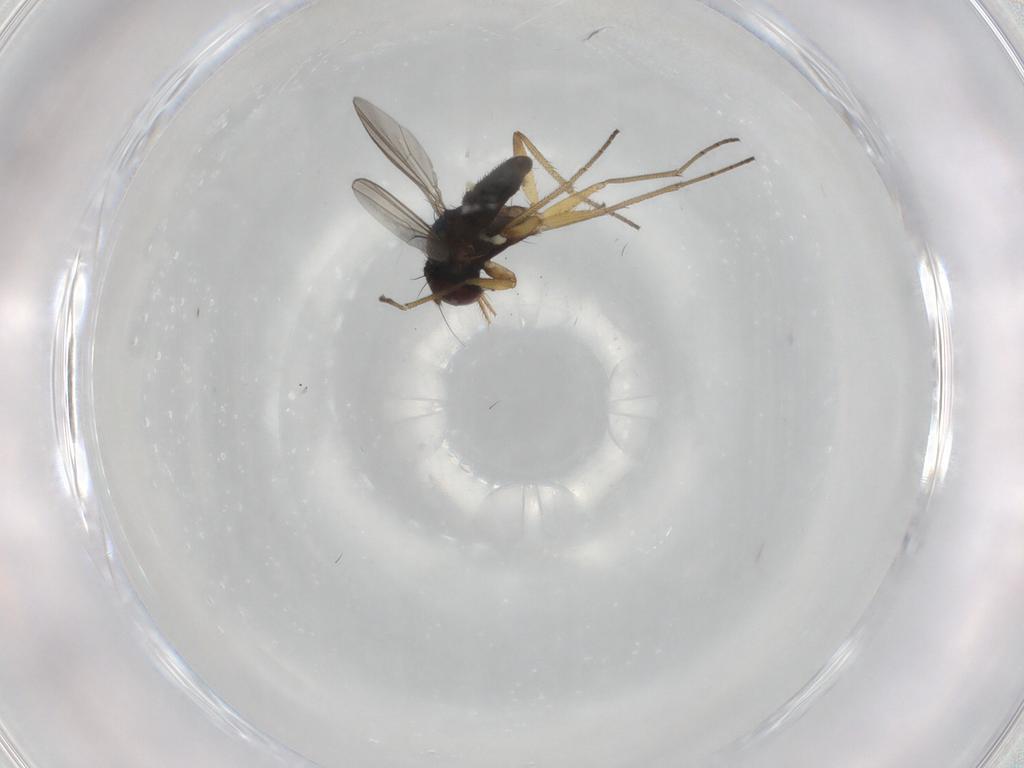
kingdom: Animalia
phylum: Arthropoda
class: Insecta
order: Diptera
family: Dolichopodidae
